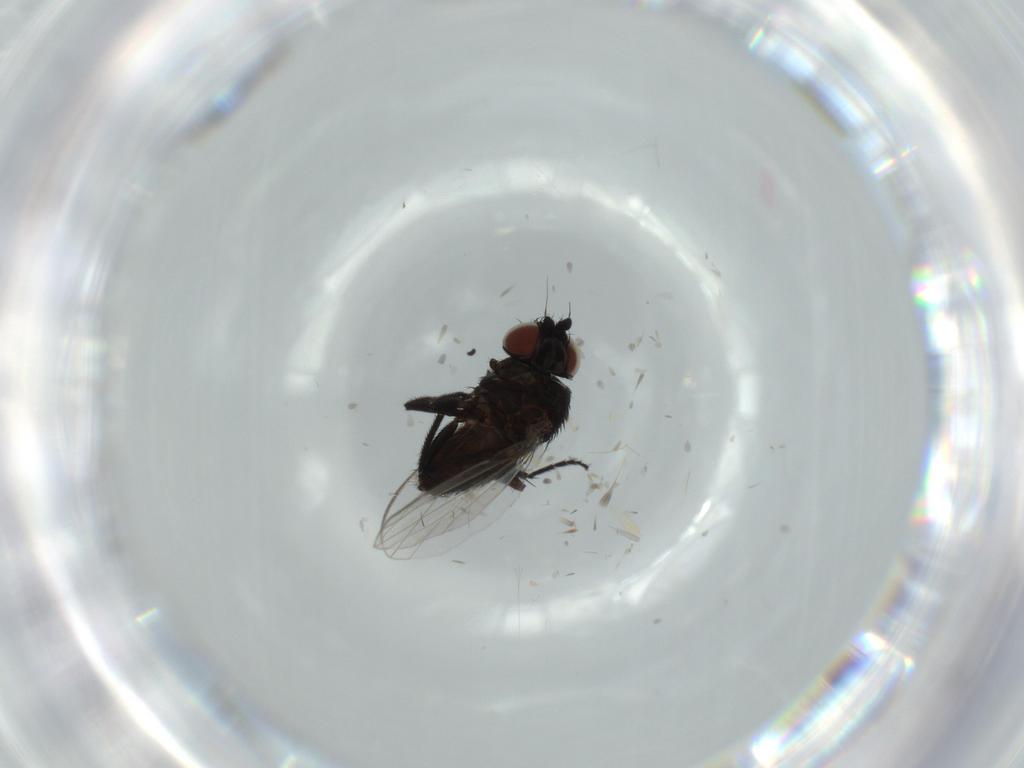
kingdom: Animalia
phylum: Arthropoda
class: Insecta
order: Diptera
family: Milichiidae
